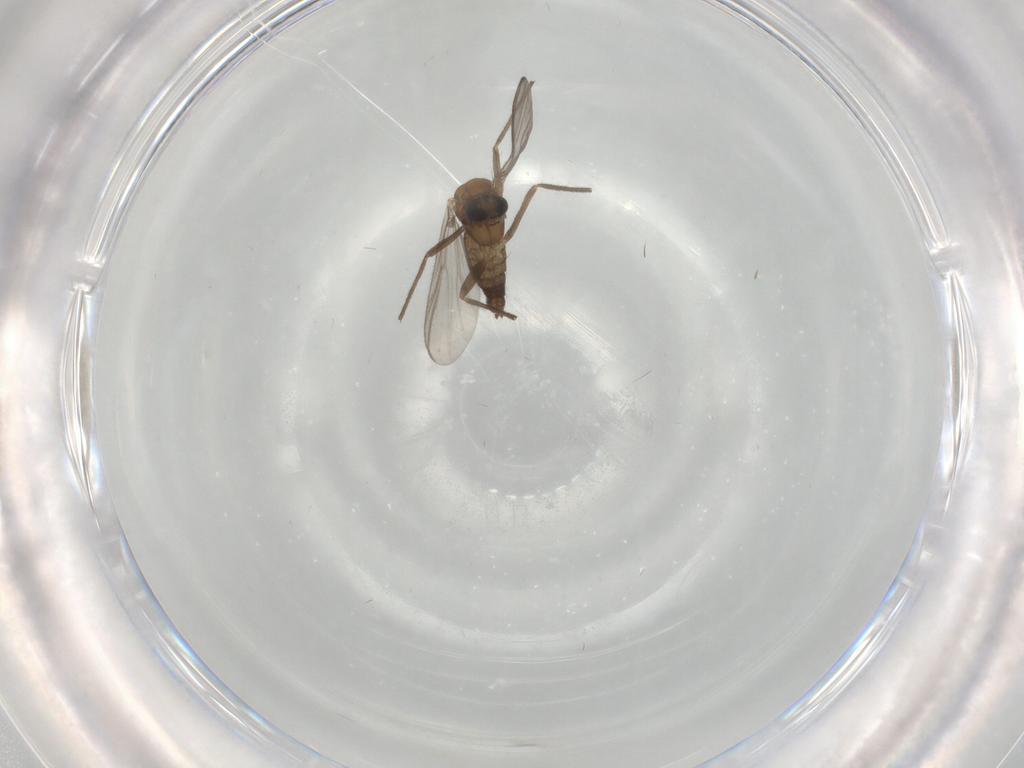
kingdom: Animalia
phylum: Arthropoda
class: Insecta
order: Diptera
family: Chironomidae
